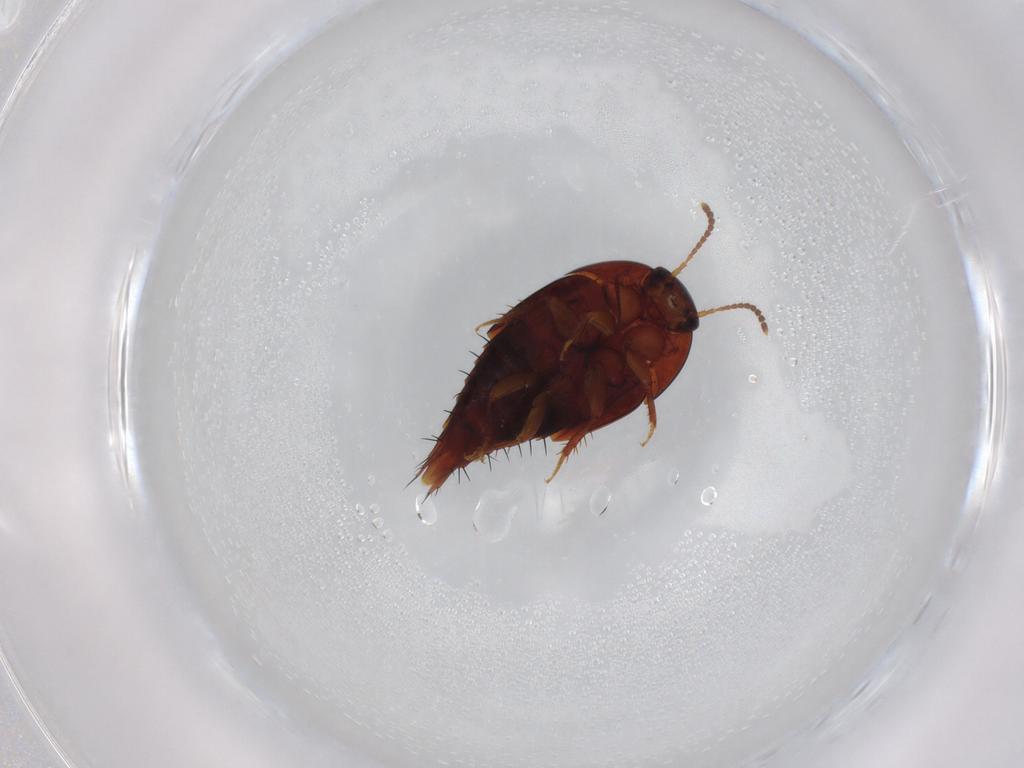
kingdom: Animalia
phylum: Arthropoda
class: Insecta
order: Coleoptera
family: Staphylinidae
